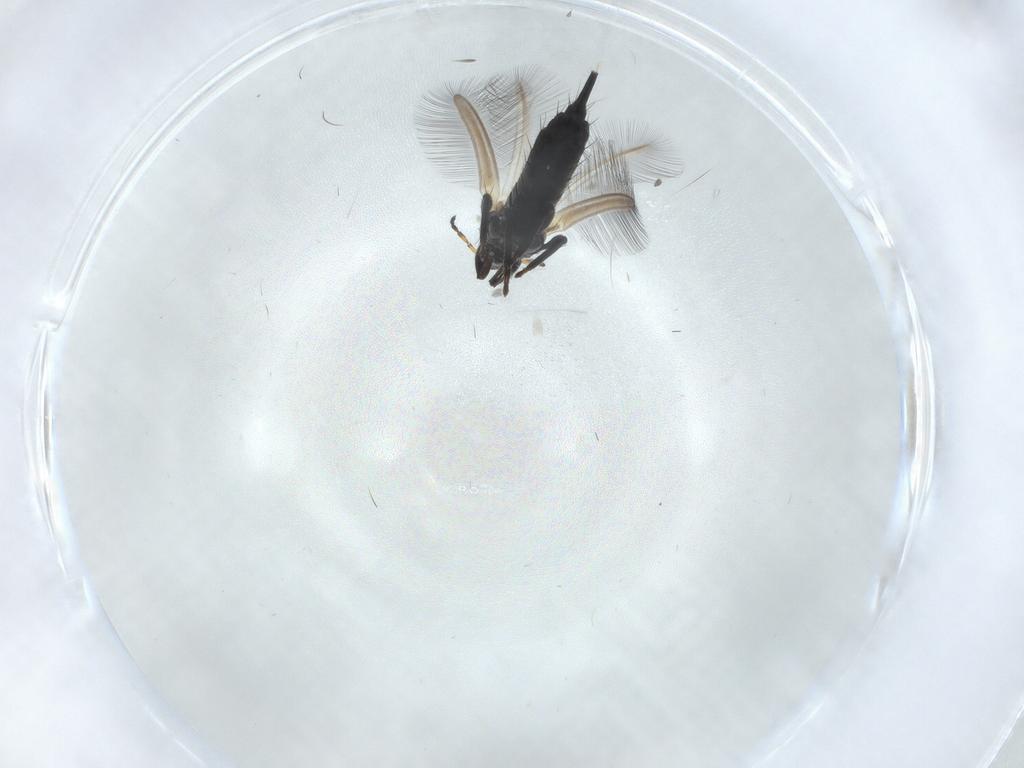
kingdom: Animalia
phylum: Arthropoda
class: Insecta
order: Thysanoptera
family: Phlaeothripidae
